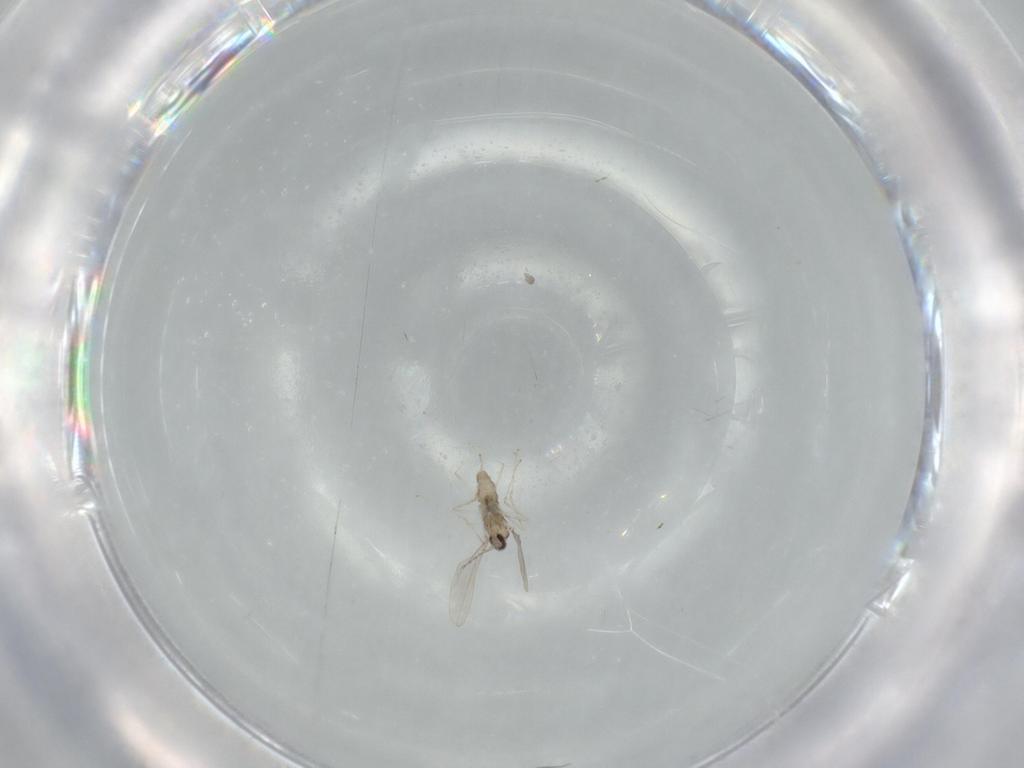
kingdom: Animalia
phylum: Arthropoda
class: Insecta
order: Diptera
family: Cecidomyiidae
